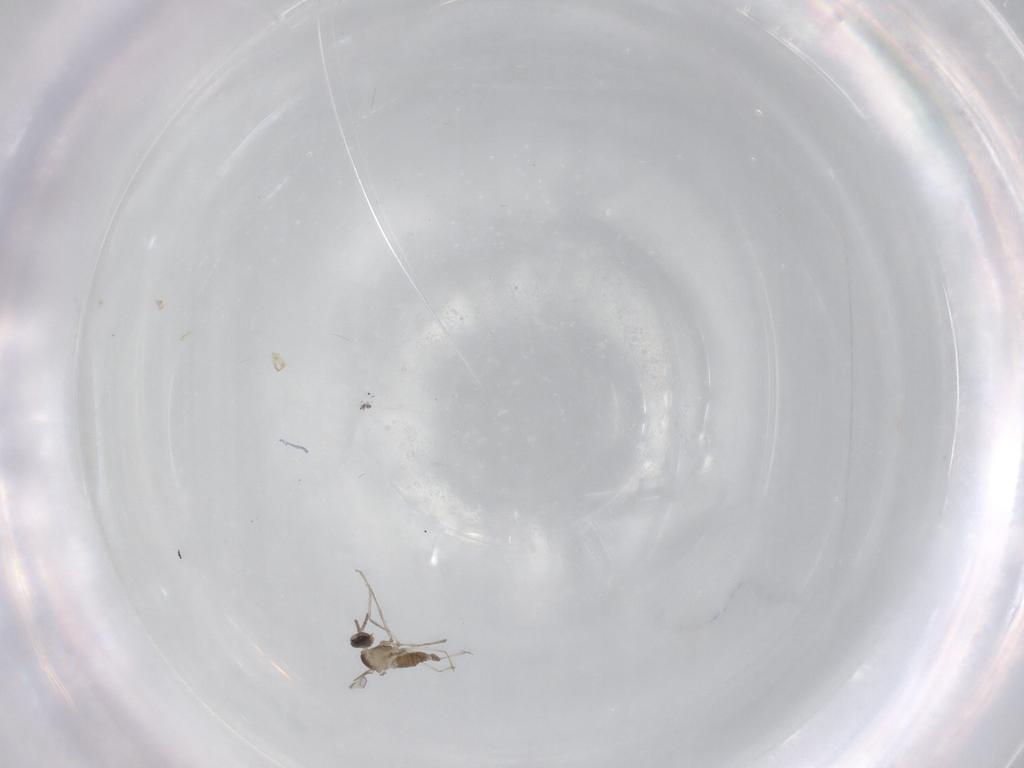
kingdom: Animalia
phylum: Arthropoda
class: Insecta
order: Diptera
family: Cecidomyiidae
